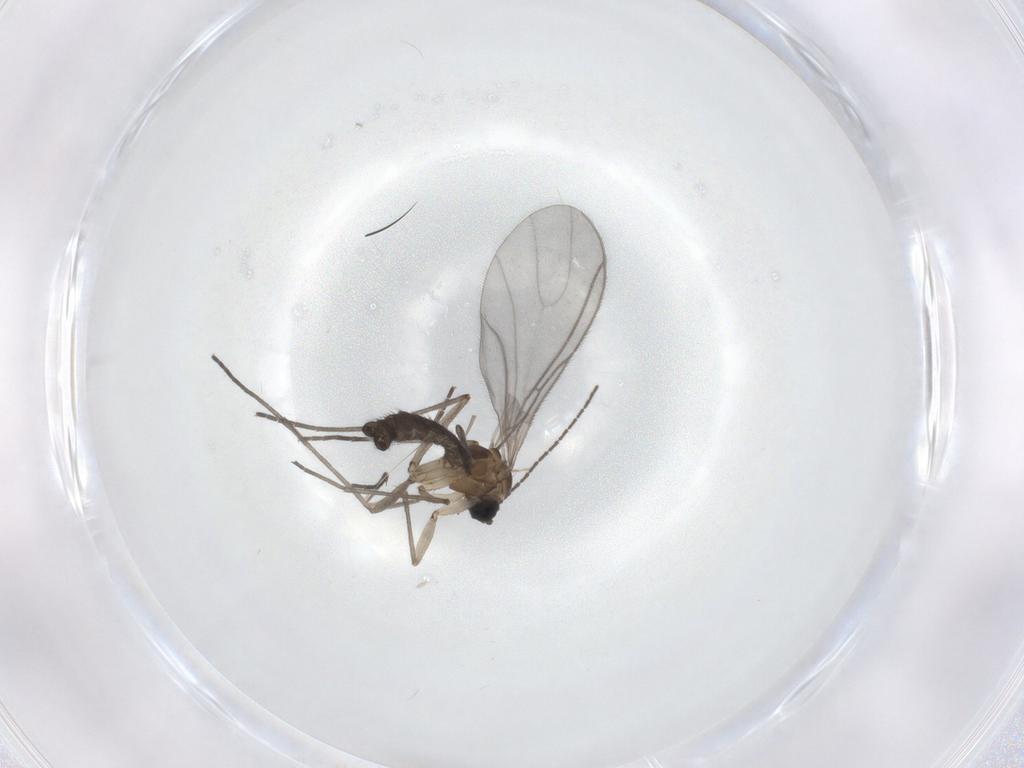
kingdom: Animalia
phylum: Arthropoda
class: Insecta
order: Diptera
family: Sciaridae
